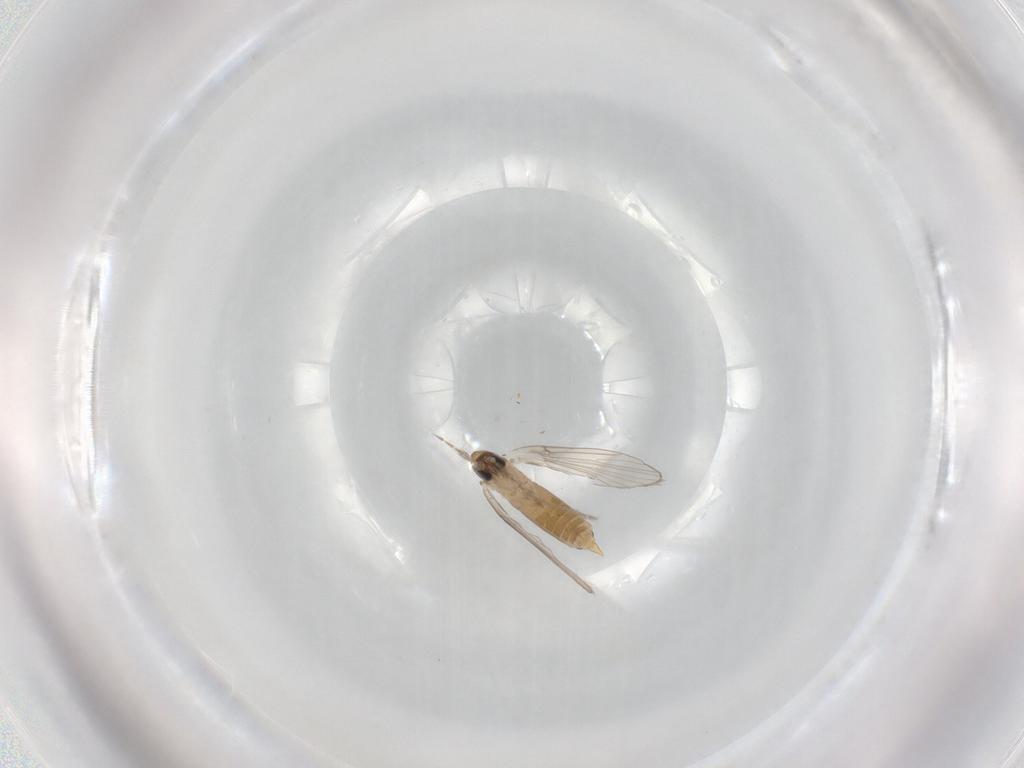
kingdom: Animalia
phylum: Arthropoda
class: Insecta
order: Diptera
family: Psychodidae
